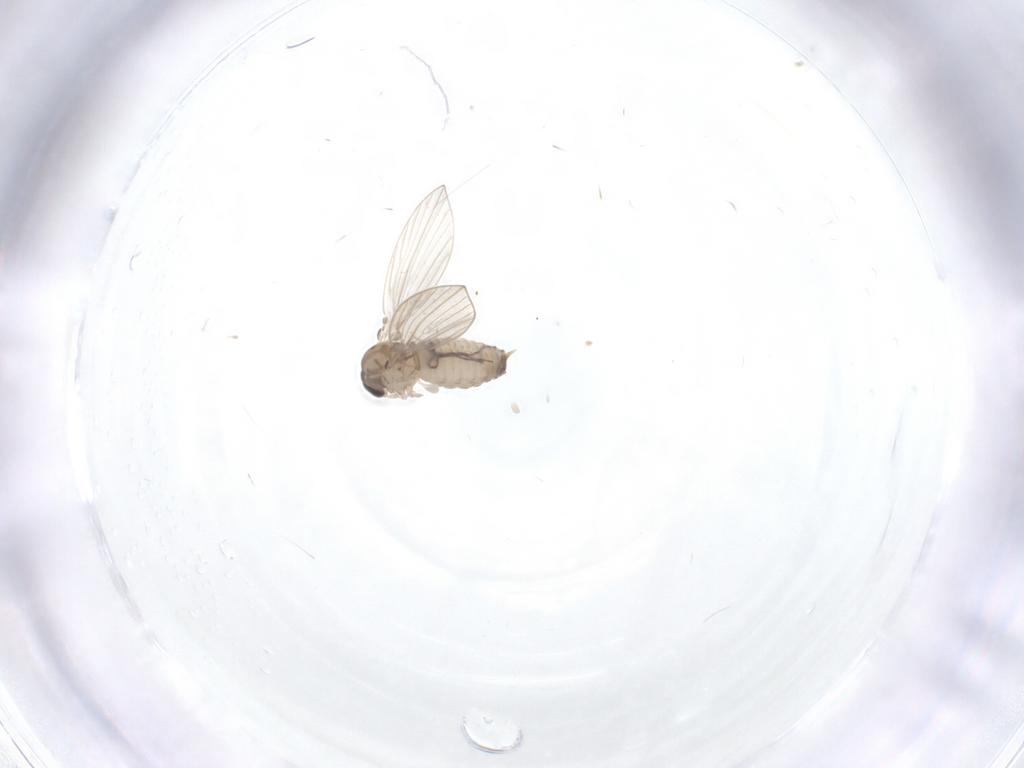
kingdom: Animalia
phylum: Arthropoda
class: Insecta
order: Diptera
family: Psychodidae
